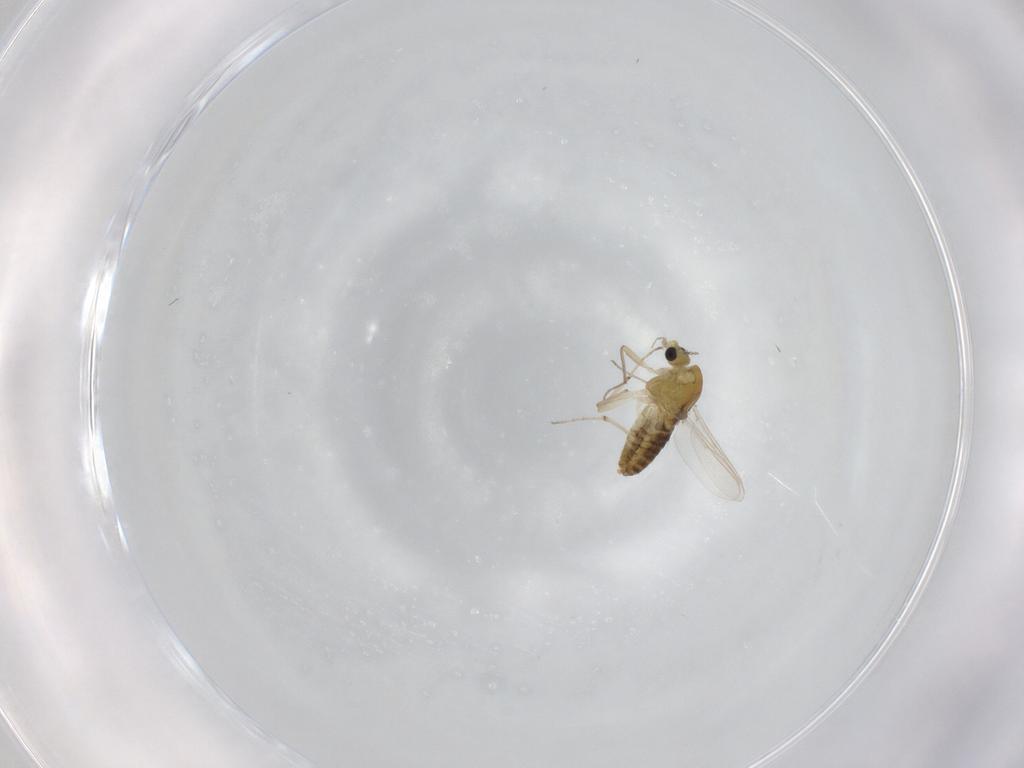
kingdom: Animalia
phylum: Arthropoda
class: Insecta
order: Diptera
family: Chironomidae
